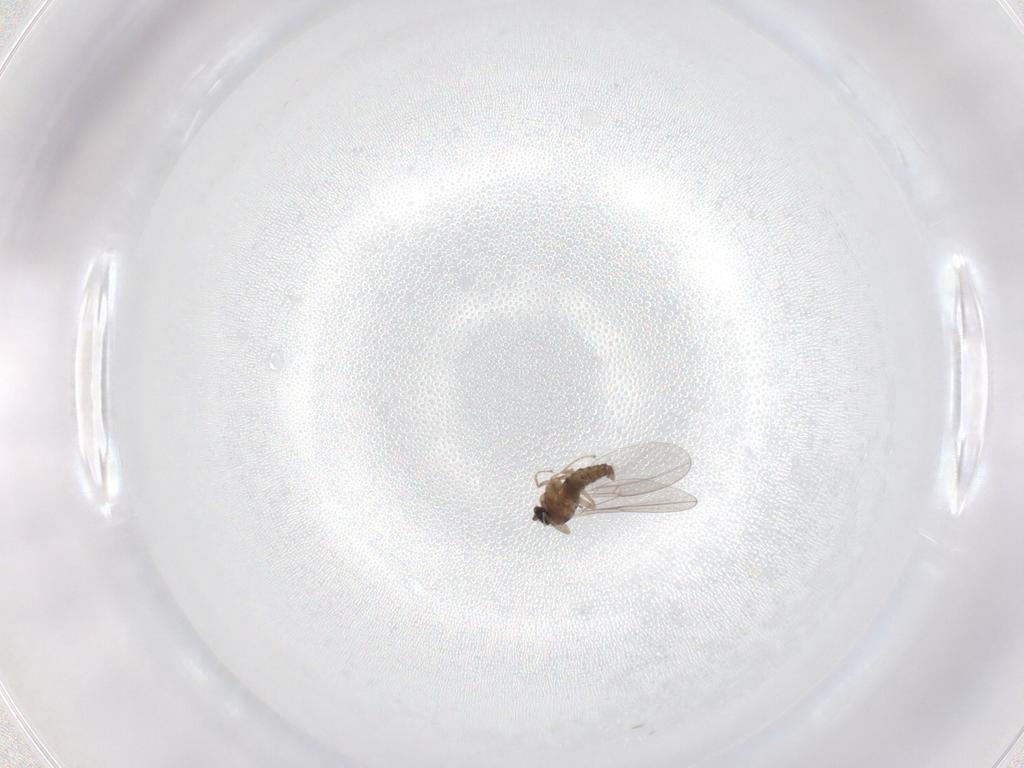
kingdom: Animalia
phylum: Arthropoda
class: Insecta
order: Diptera
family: Cecidomyiidae
